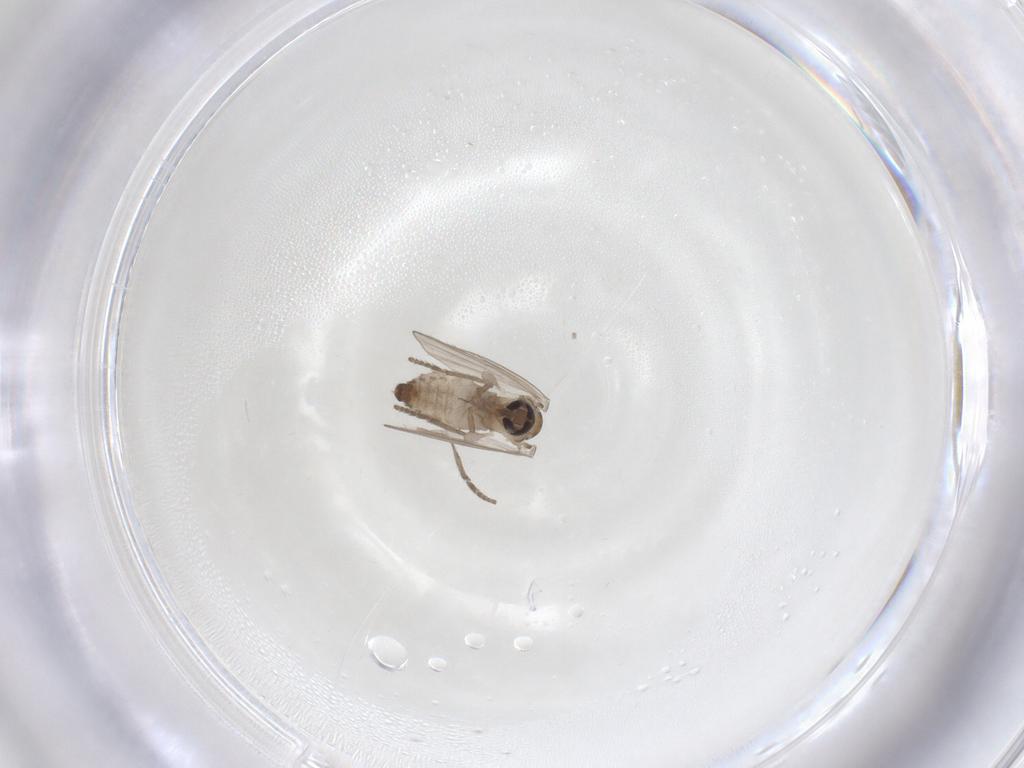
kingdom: Animalia
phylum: Arthropoda
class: Insecta
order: Diptera
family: Psychodidae
